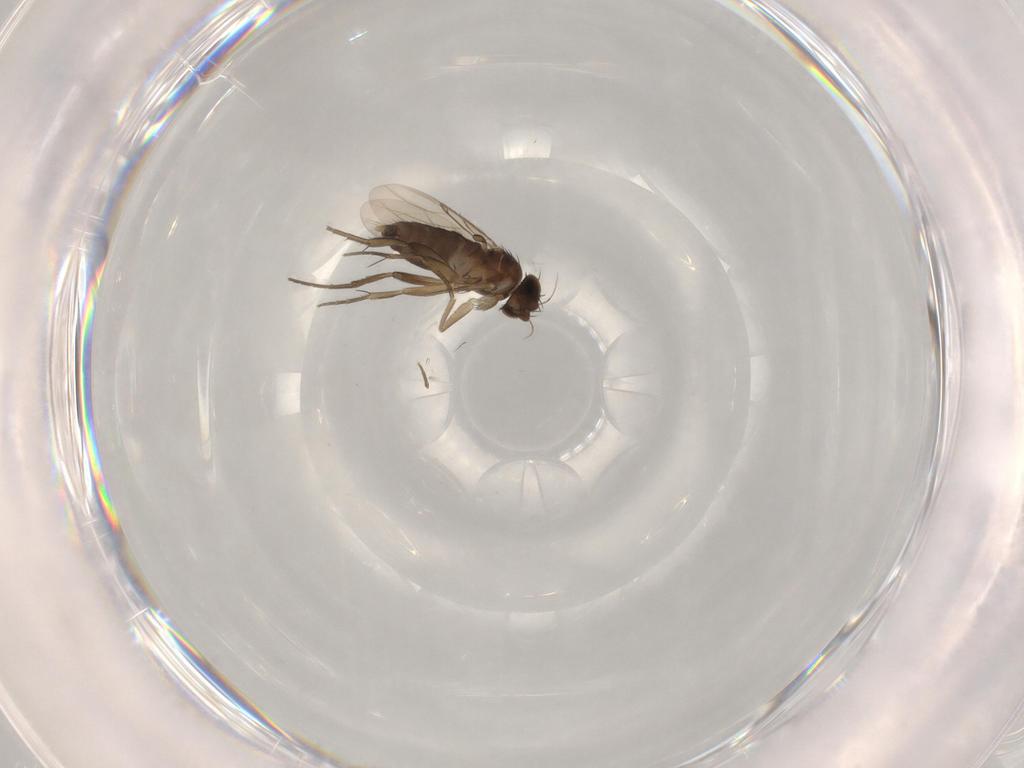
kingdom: Animalia
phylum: Arthropoda
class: Insecta
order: Diptera
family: Phoridae
